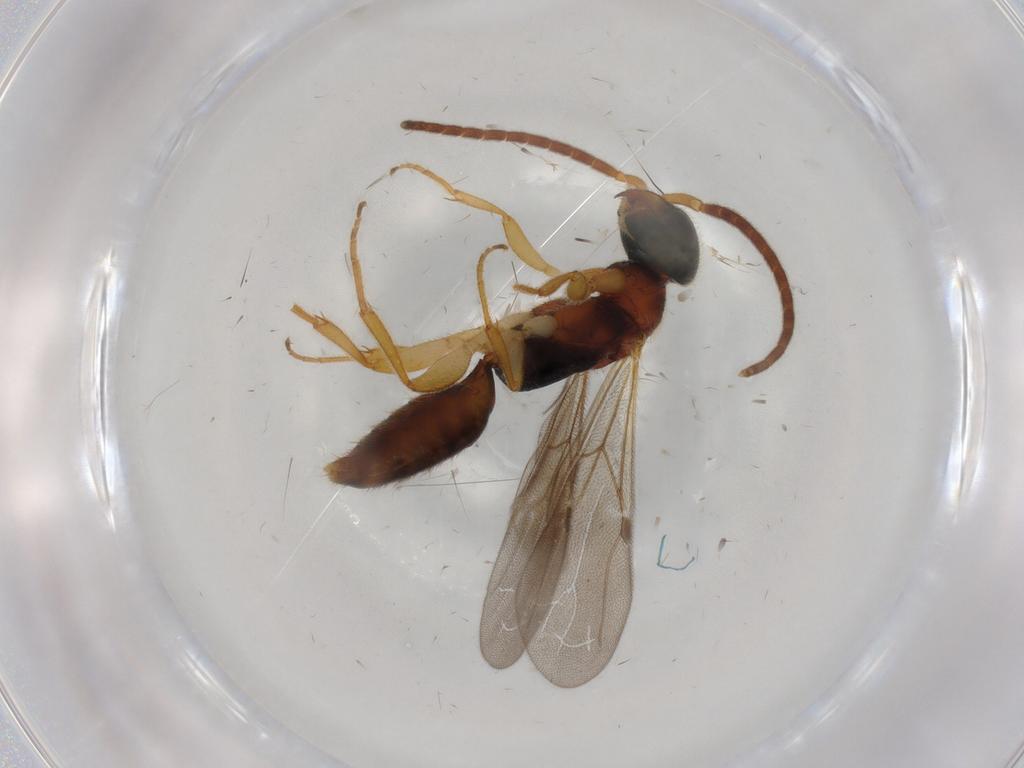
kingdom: Animalia
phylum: Arthropoda
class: Insecta
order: Hymenoptera
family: Bethylidae
